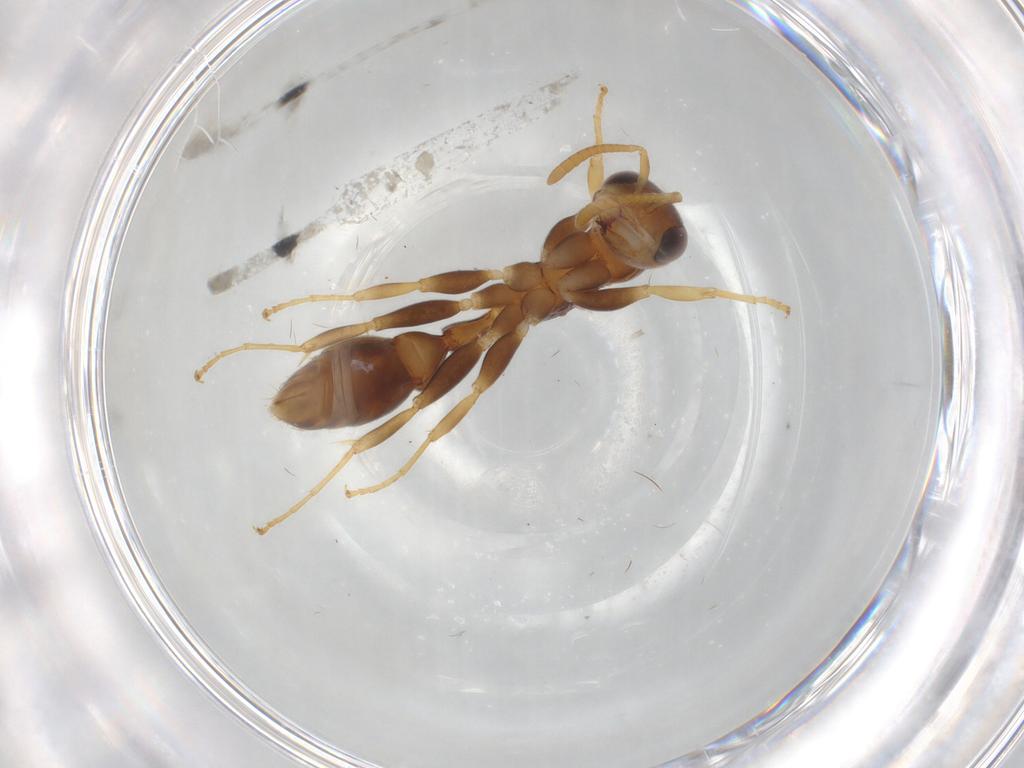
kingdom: Animalia
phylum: Arthropoda
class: Insecta
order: Hymenoptera
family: Formicidae
